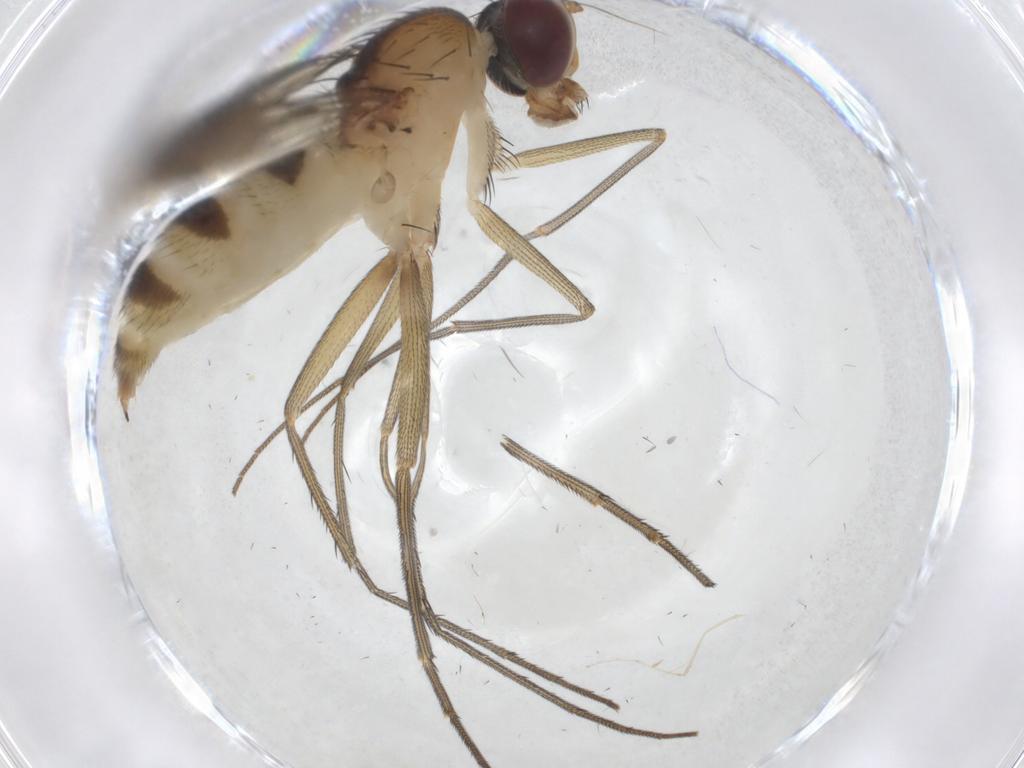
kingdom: Animalia
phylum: Arthropoda
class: Insecta
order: Diptera
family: Dolichopodidae
